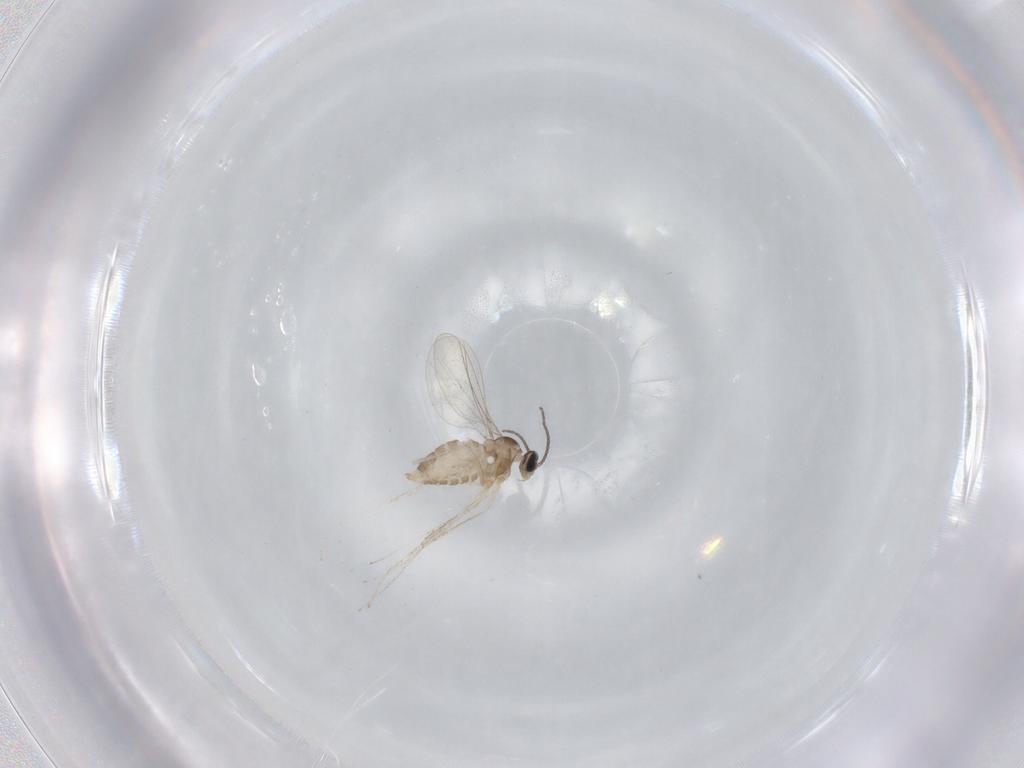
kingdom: Animalia
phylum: Arthropoda
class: Insecta
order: Diptera
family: Cecidomyiidae
